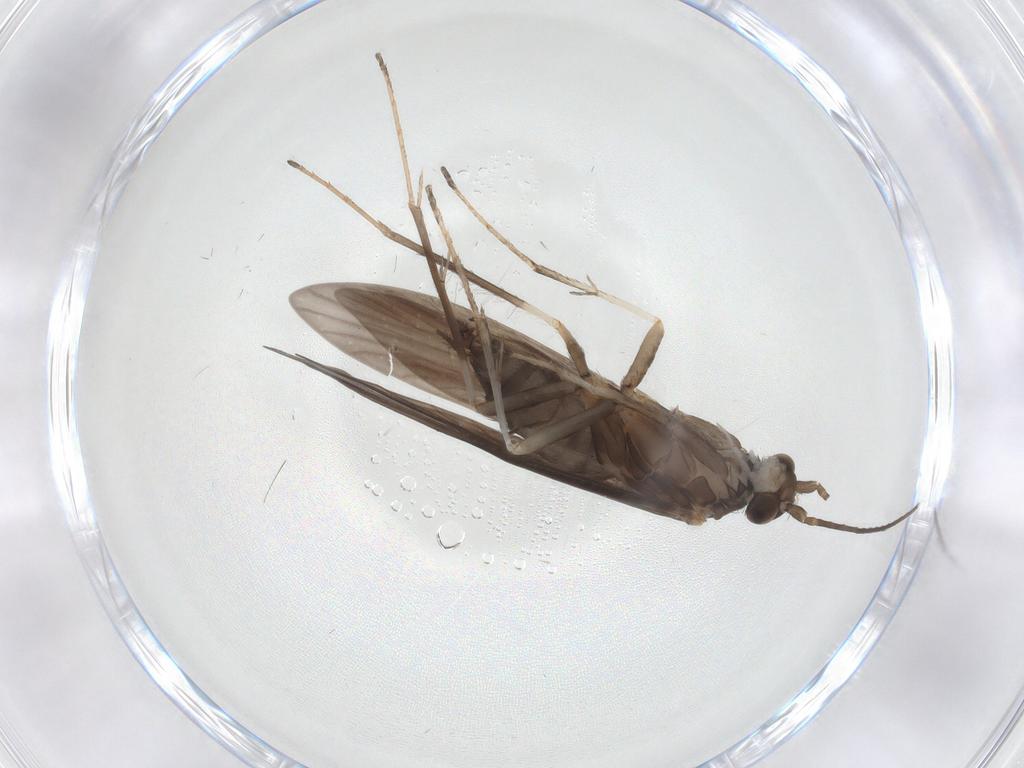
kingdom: Animalia
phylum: Arthropoda
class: Insecta
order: Trichoptera
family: Xiphocentronidae
